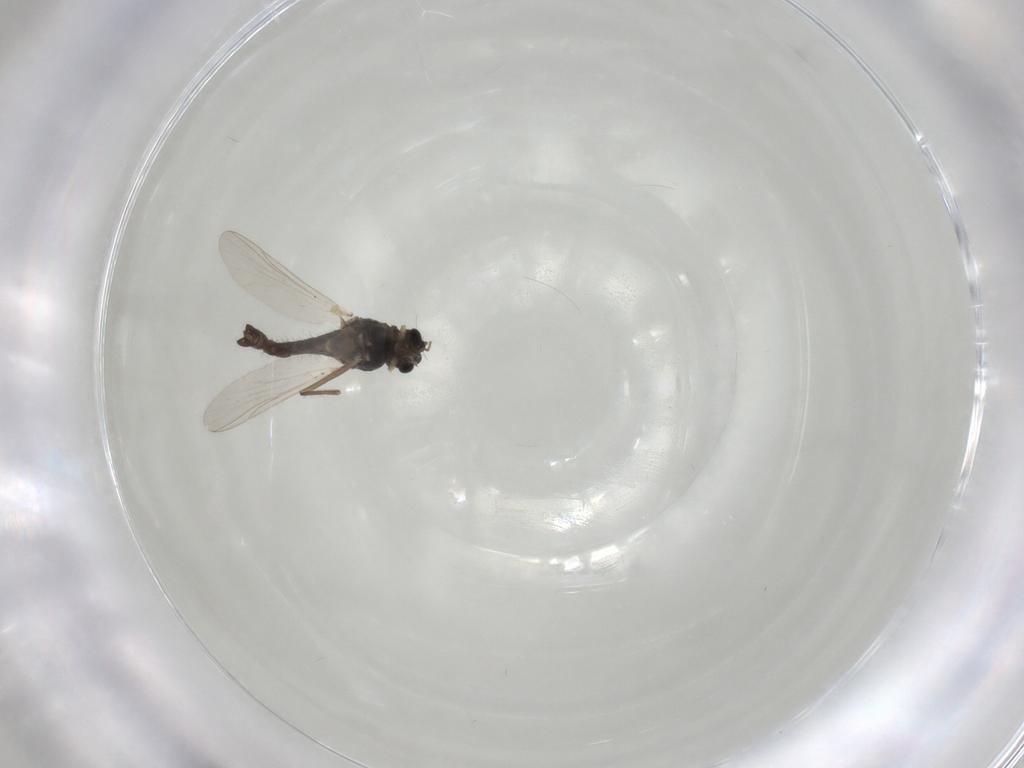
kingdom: Animalia
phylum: Arthropoda
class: Insecta
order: Diptera
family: Chironomidae
